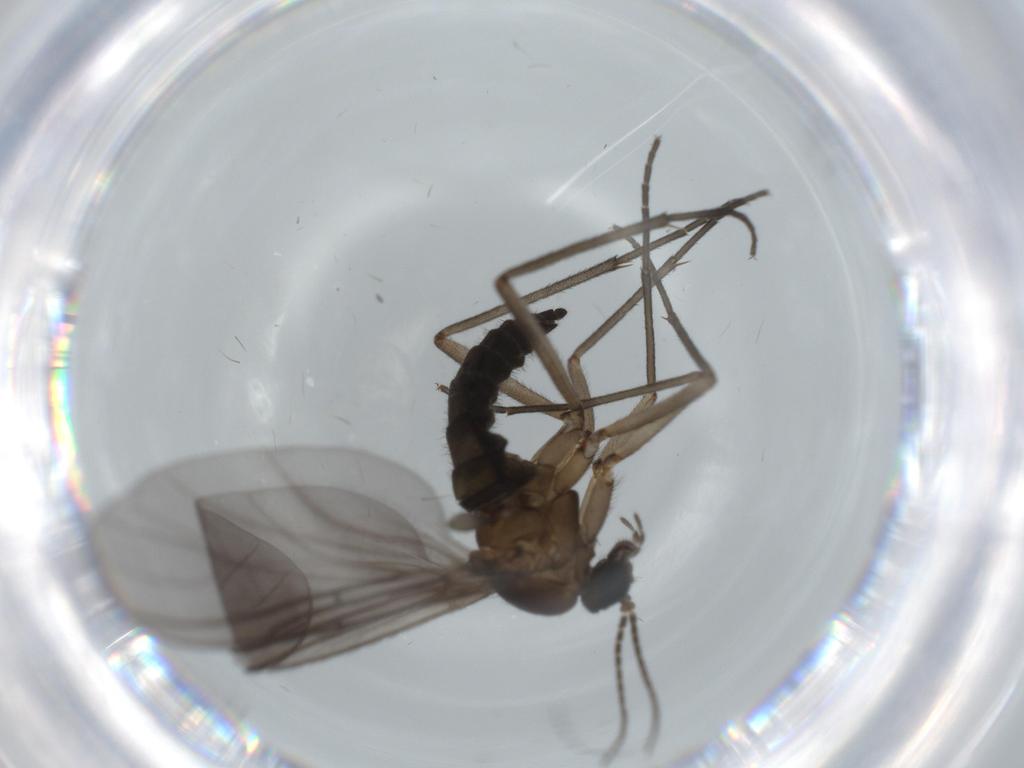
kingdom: Animalia
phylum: Arthropoda
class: Insecta
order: Diptera
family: Sciaridae
